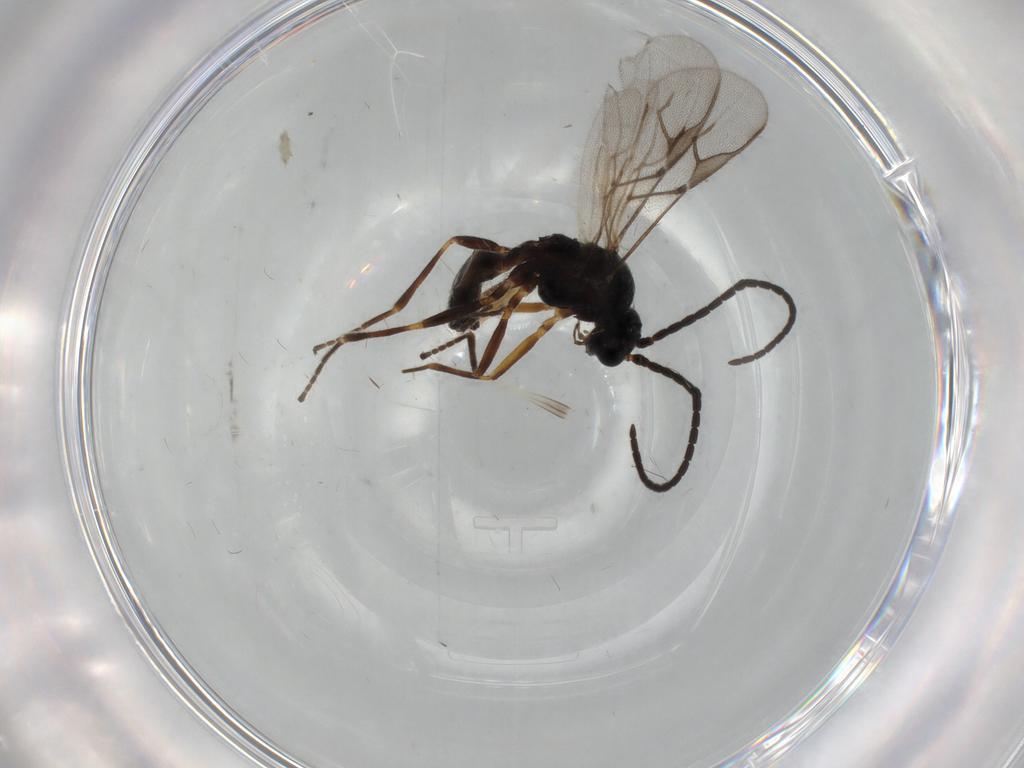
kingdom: Animalia
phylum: Arthropoda
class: Insecta
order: Hymenoptera
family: Braconidae
